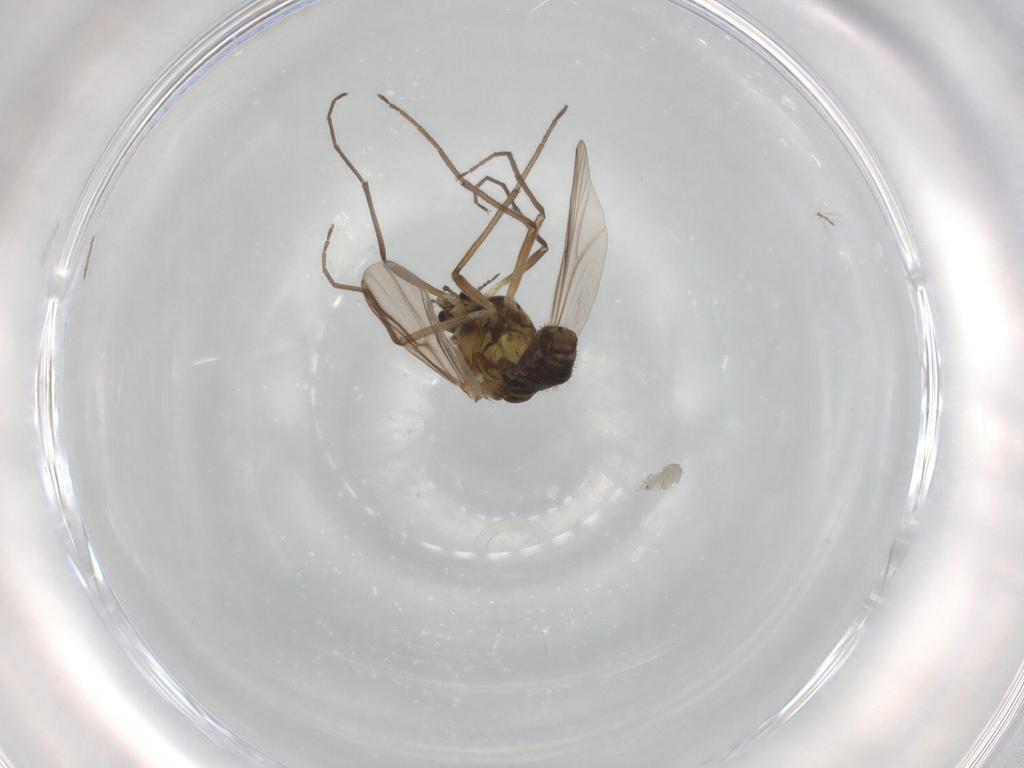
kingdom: Animalia
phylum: Arthropoda
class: Insecta
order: Diptera
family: Chironomidae
